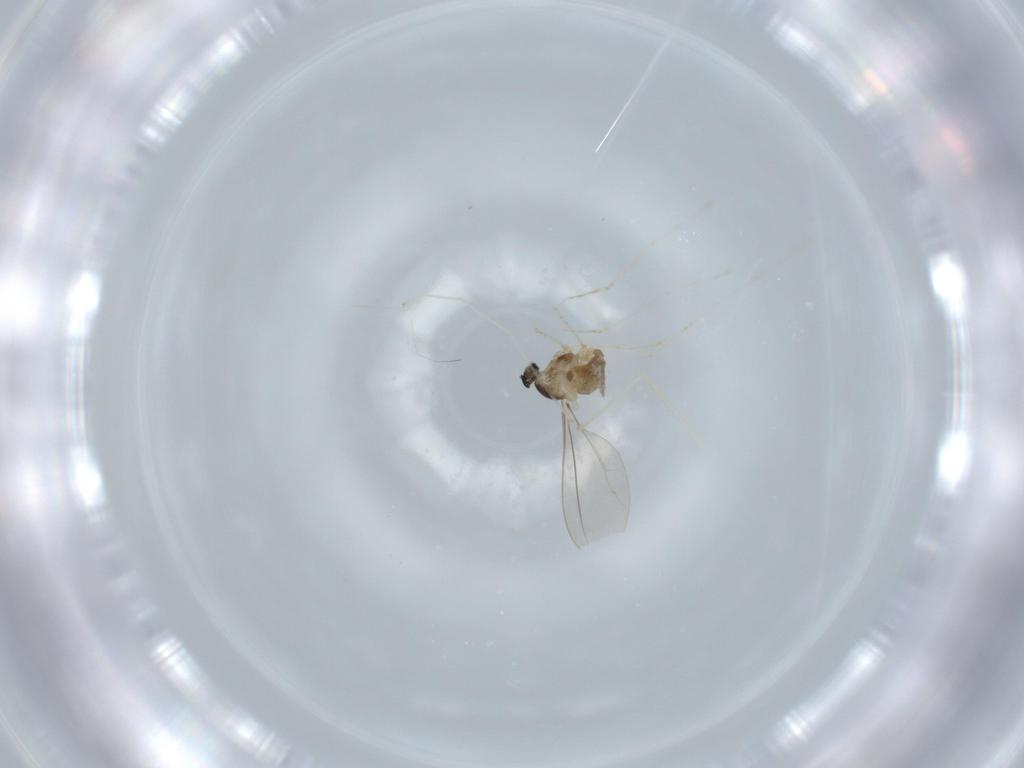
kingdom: Animalia
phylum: Arthropoda
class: Insecta
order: Diptera
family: Cecidomyiidae
